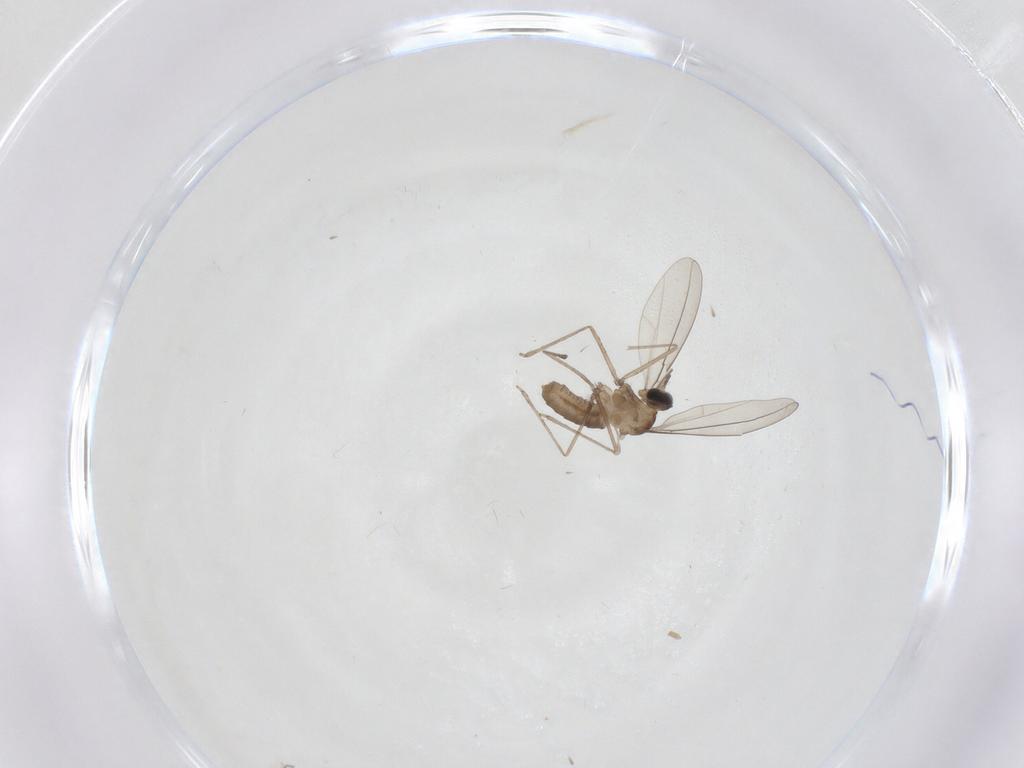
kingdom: Animalia
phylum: Arthropoda
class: Insecta
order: Diptera
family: Cecidomyiidae
